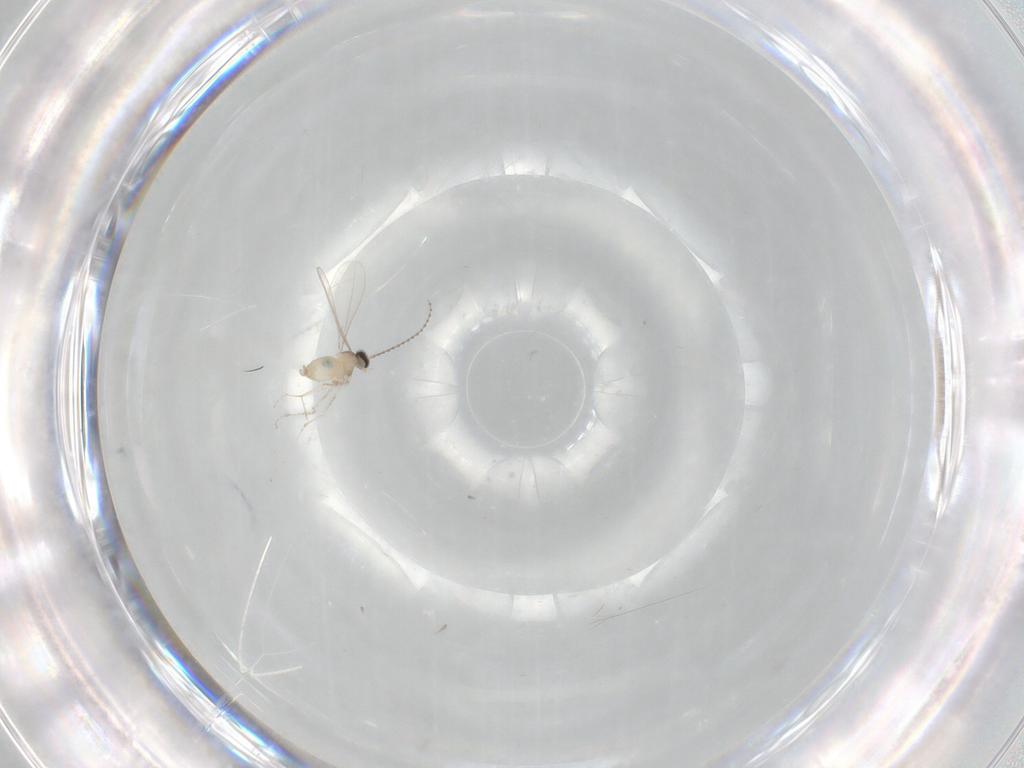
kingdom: Animalia
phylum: Arthropoda
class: Insecta
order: Diptera
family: Cecidomyiidae
